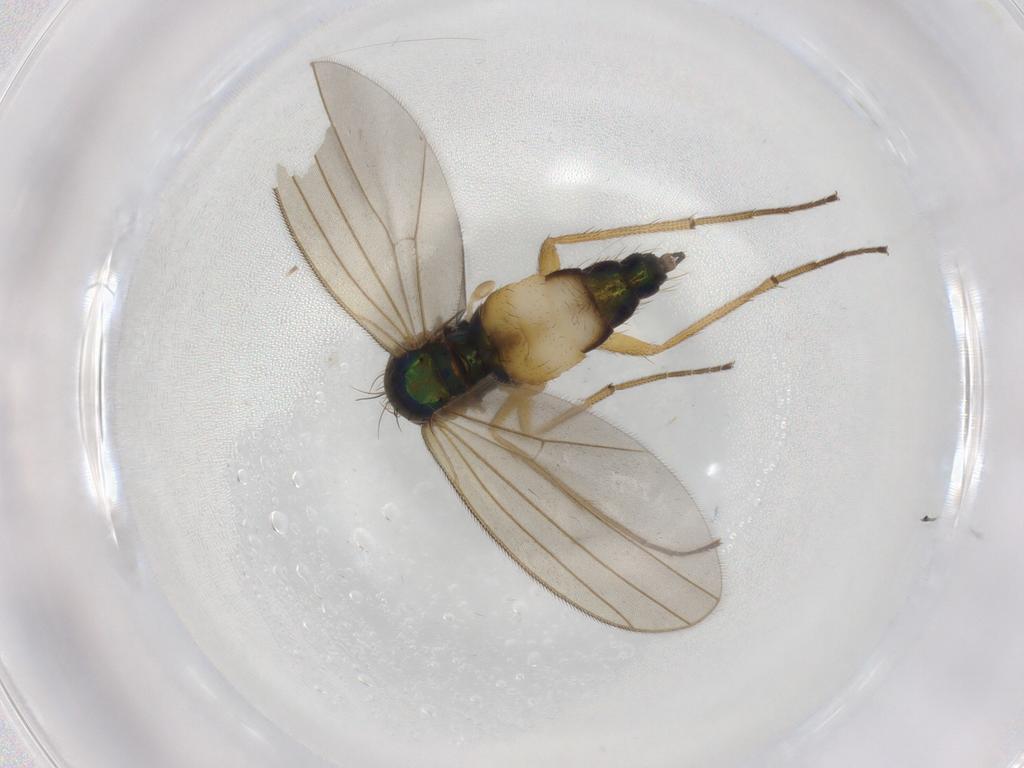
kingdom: Animalia
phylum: Arthropoda
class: Insecta
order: Diptera
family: Dolichopodidae
